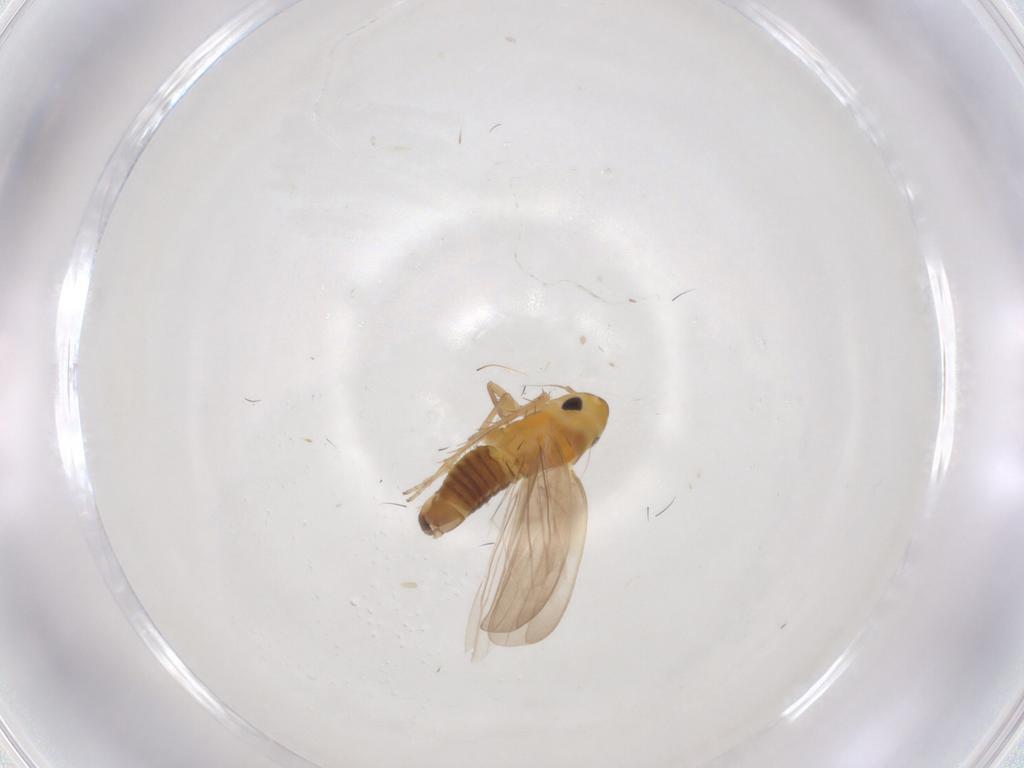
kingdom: Animalia
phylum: Arthropoda
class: Insecta
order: Hemiptera
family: Cicadellidae
